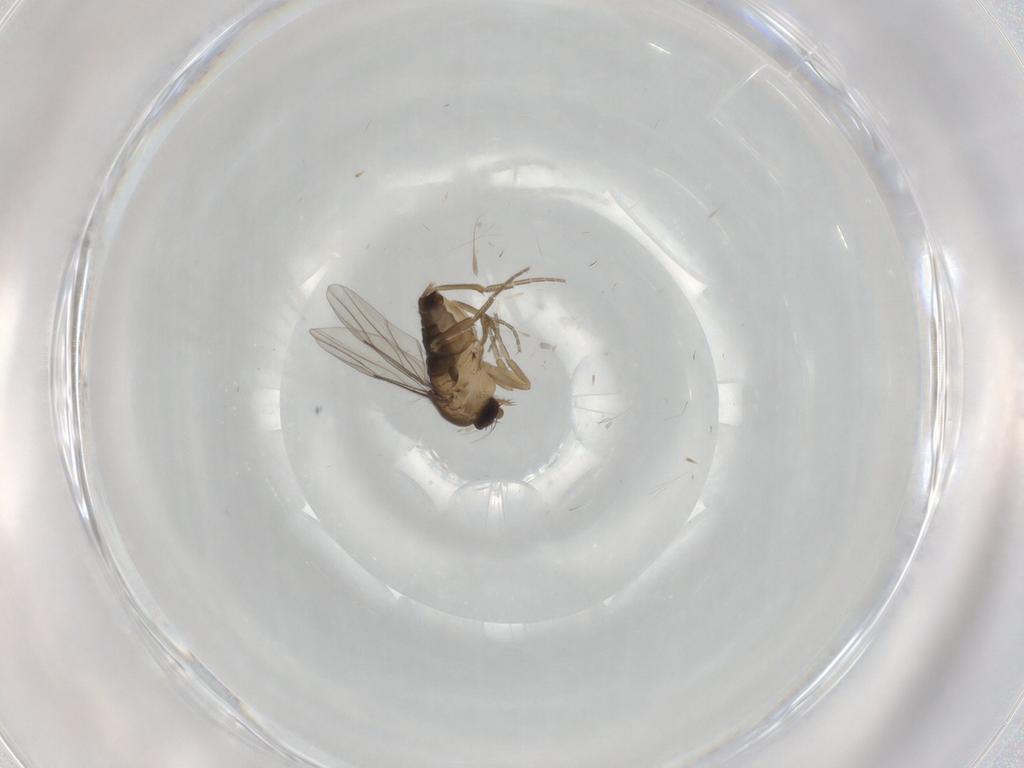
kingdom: Animalia
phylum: Arthropoda
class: Insecta
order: Diptera
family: Phoridae
